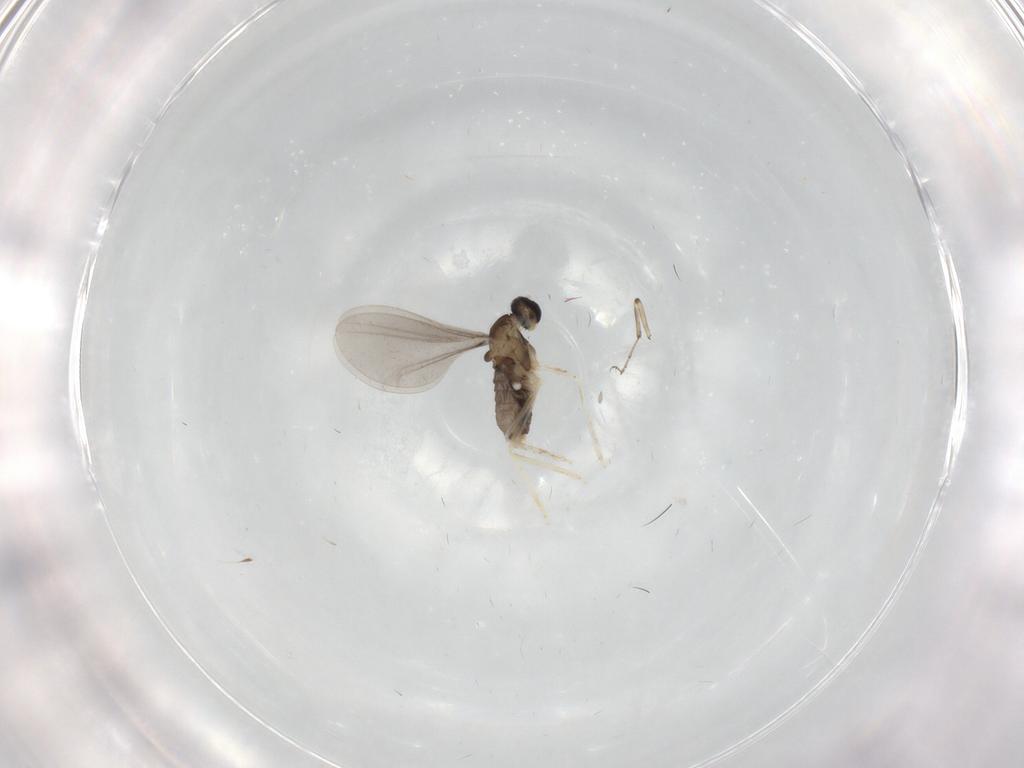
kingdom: Animalia
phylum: Arthropoda
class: Insecta
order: Diptera
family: Cecidomyiidae
